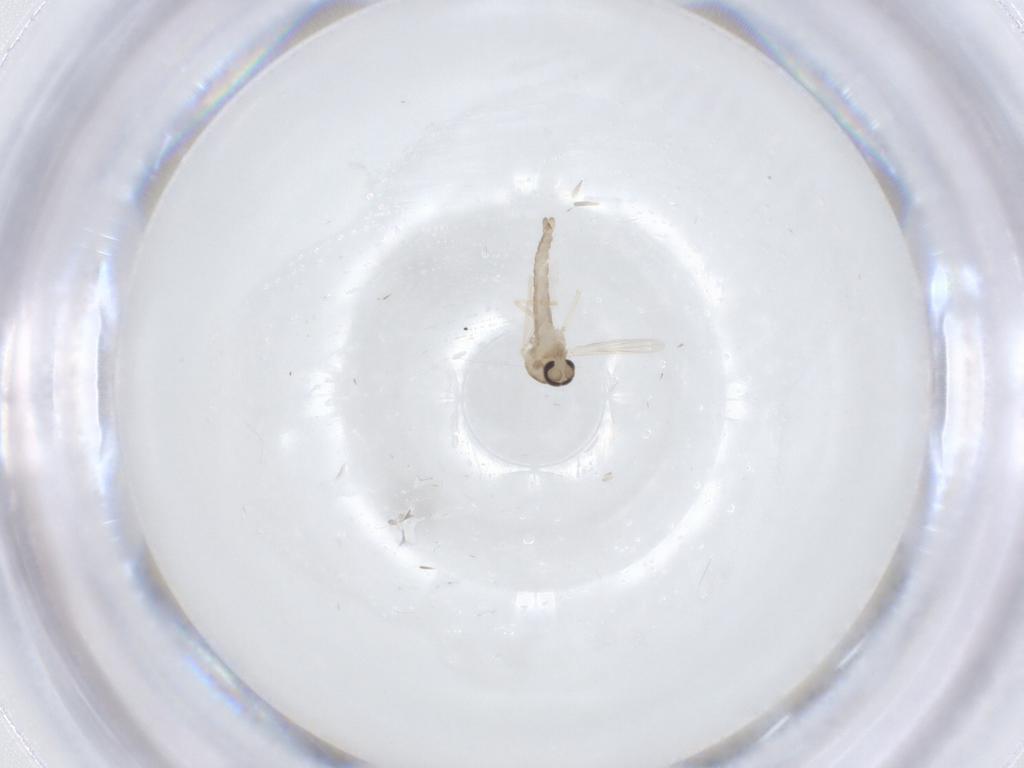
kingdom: Animalia
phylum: Arthropoda
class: Insecta
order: Diptera
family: Ceratopogonidae
